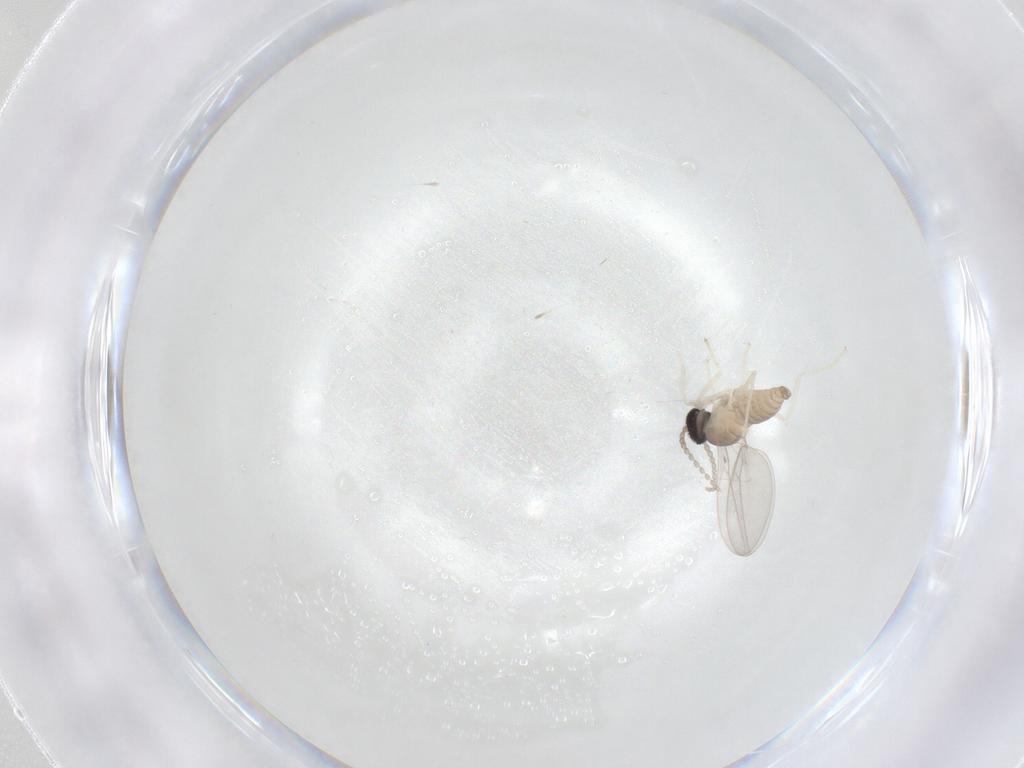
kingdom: Animalia
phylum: Arthropoda
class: Insecta
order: Diptera
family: Cecidomyiidae
